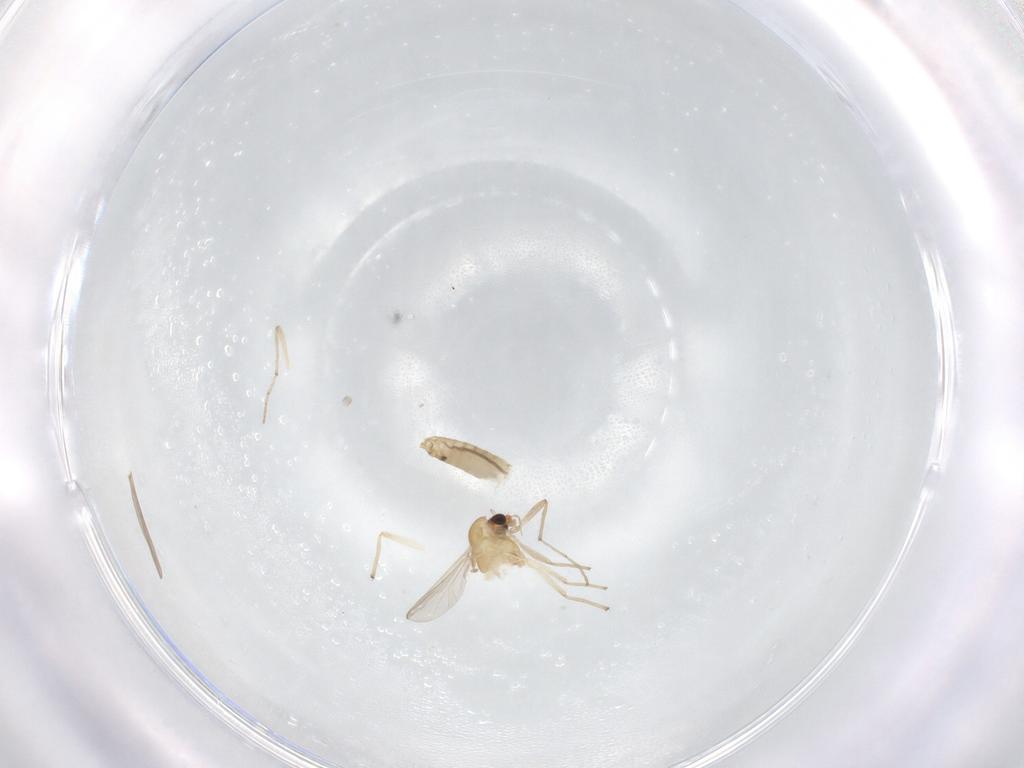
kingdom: Animalia
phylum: Arthropoda
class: Insecta
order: Diptera
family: Chironomidae
